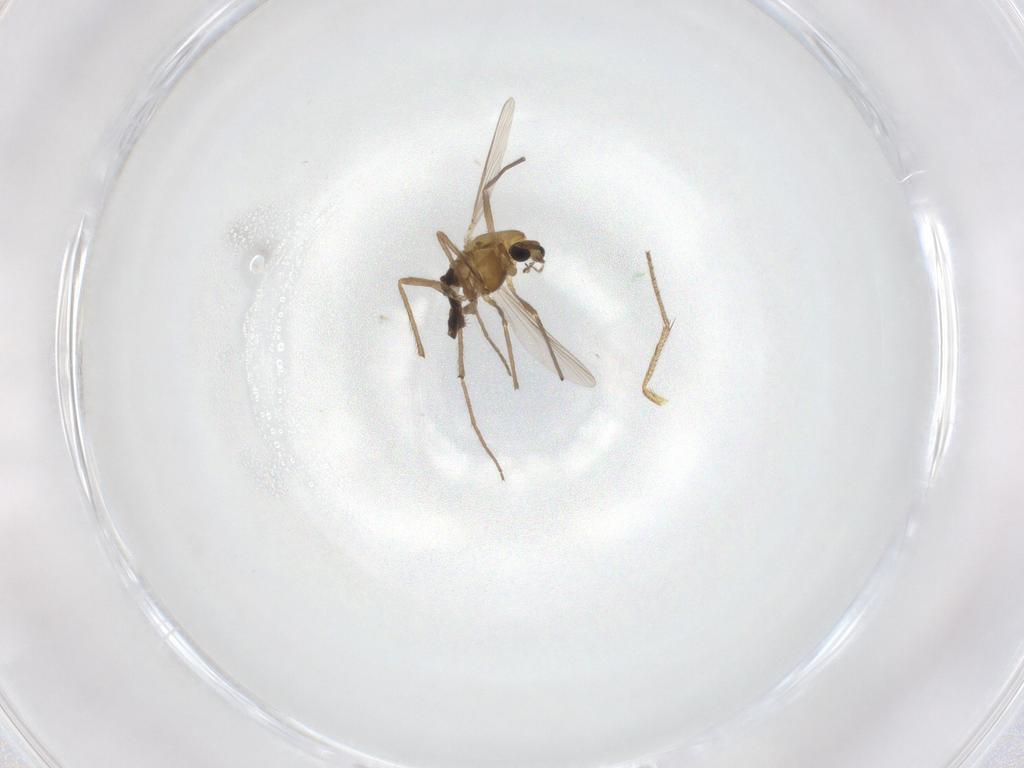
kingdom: Animalia
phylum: Arthropoda
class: Insecta
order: Diptera
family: Chironomidae
